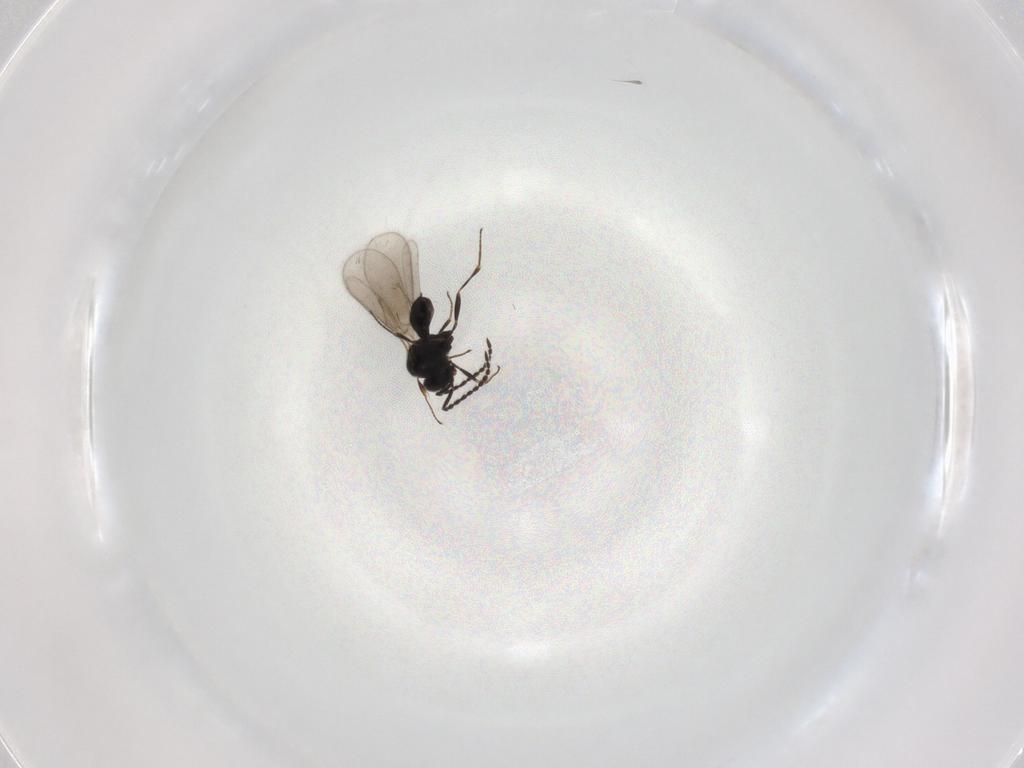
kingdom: Animalia
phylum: Arthropoda
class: Insecta
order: Hymenoptera
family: Scelionidae
